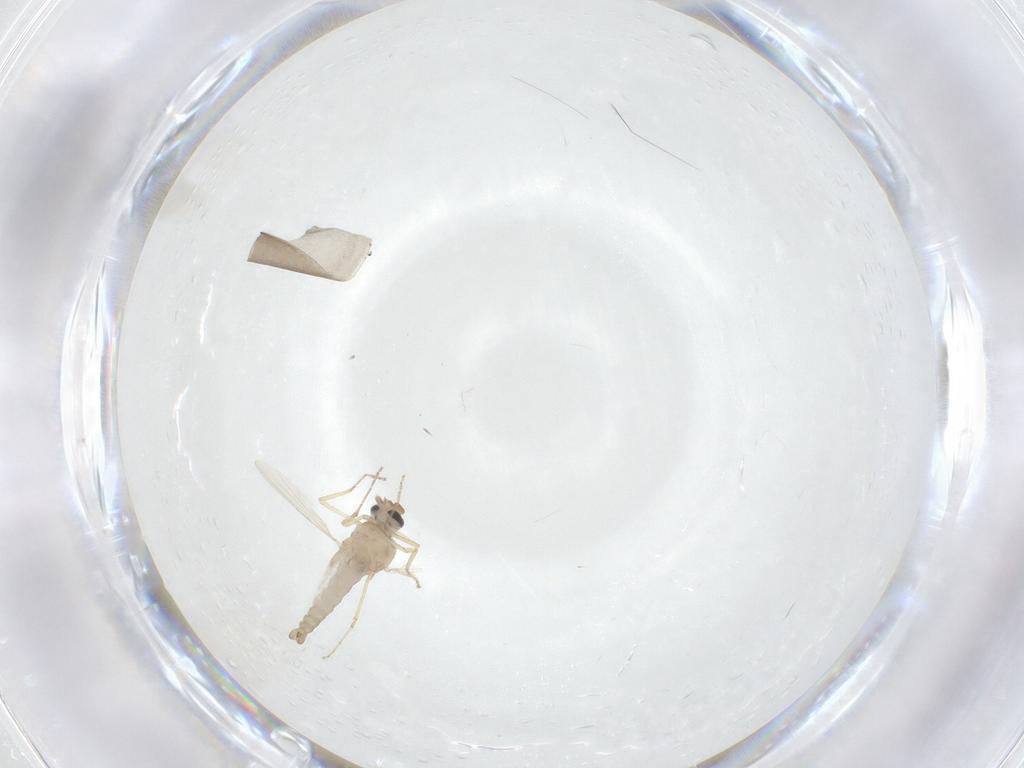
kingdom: Animalia
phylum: Arthropoda
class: Insecta
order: Diptera
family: Ceratopogonidae
